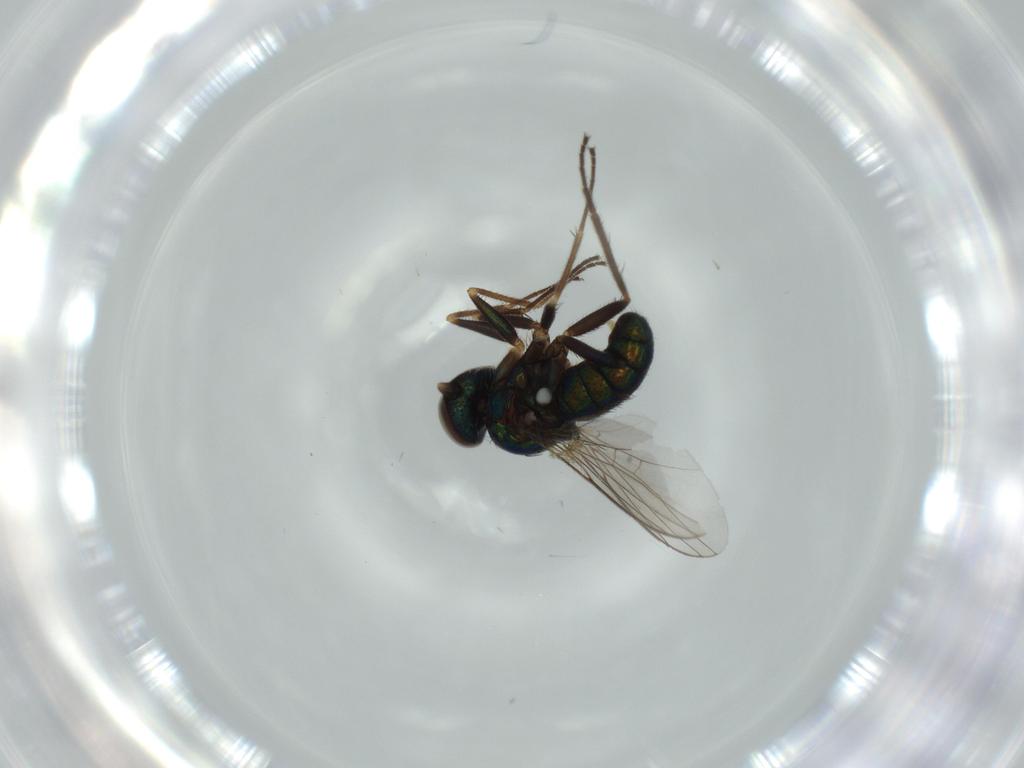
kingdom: Animalia
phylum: Arthropoda
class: Insecta
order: Diptera
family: Dolichopodidae
